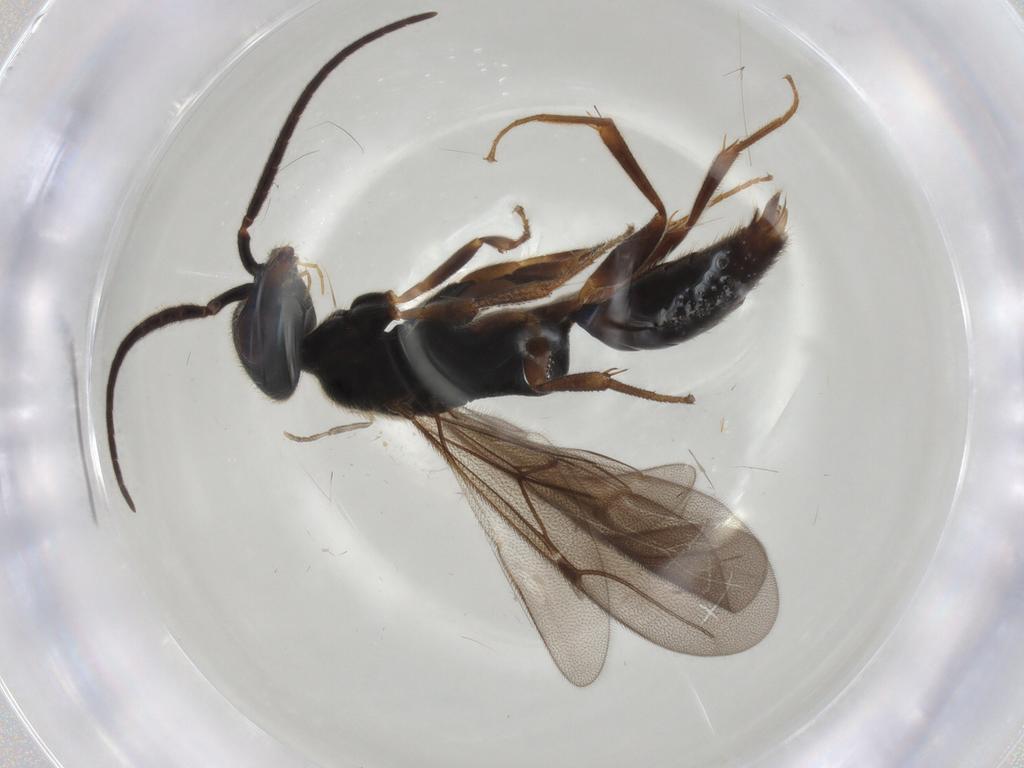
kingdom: Animalia
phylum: Arthropoda
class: Insecta
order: Hymenoptera
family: Bethylidae
